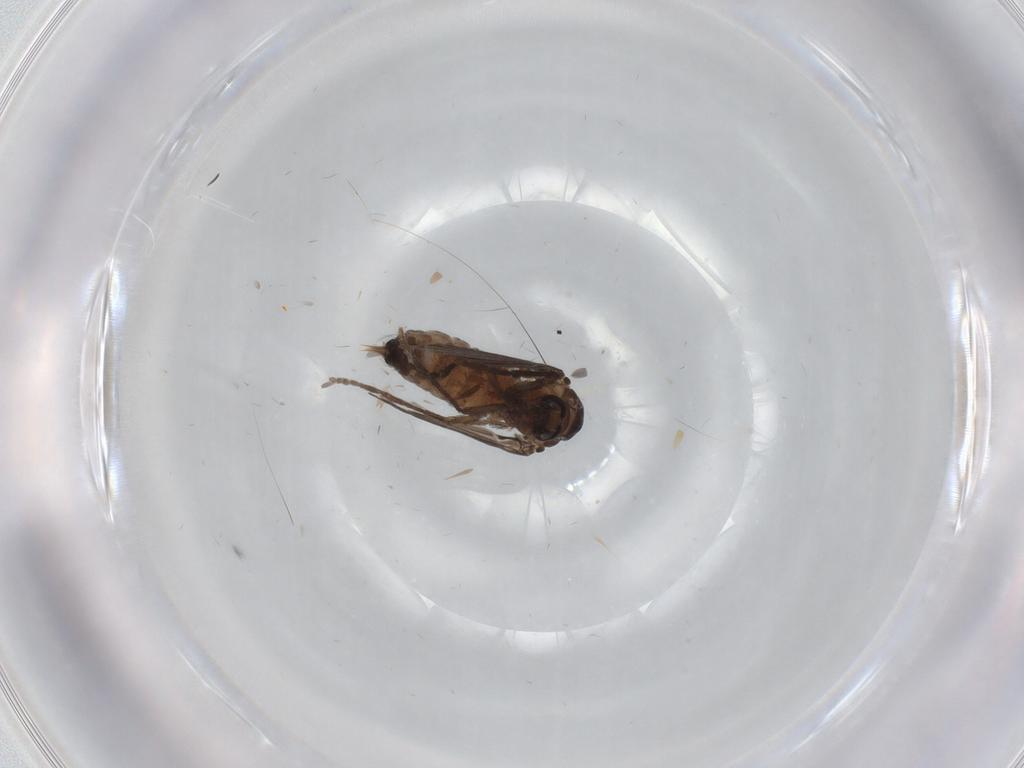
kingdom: Animalia
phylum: Arthropoda
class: Insecta
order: Diptera
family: Psychodidae
